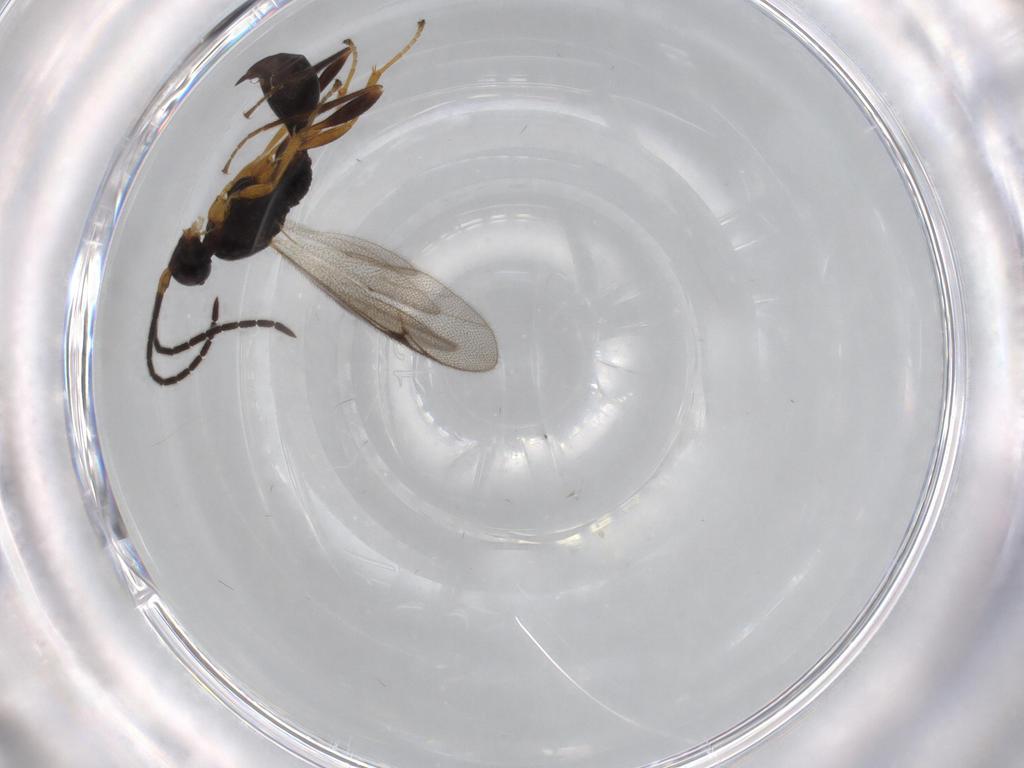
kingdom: Animalia
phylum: Arthropoda
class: Insecta
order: Hymenoptera
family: Proctotrupidae
